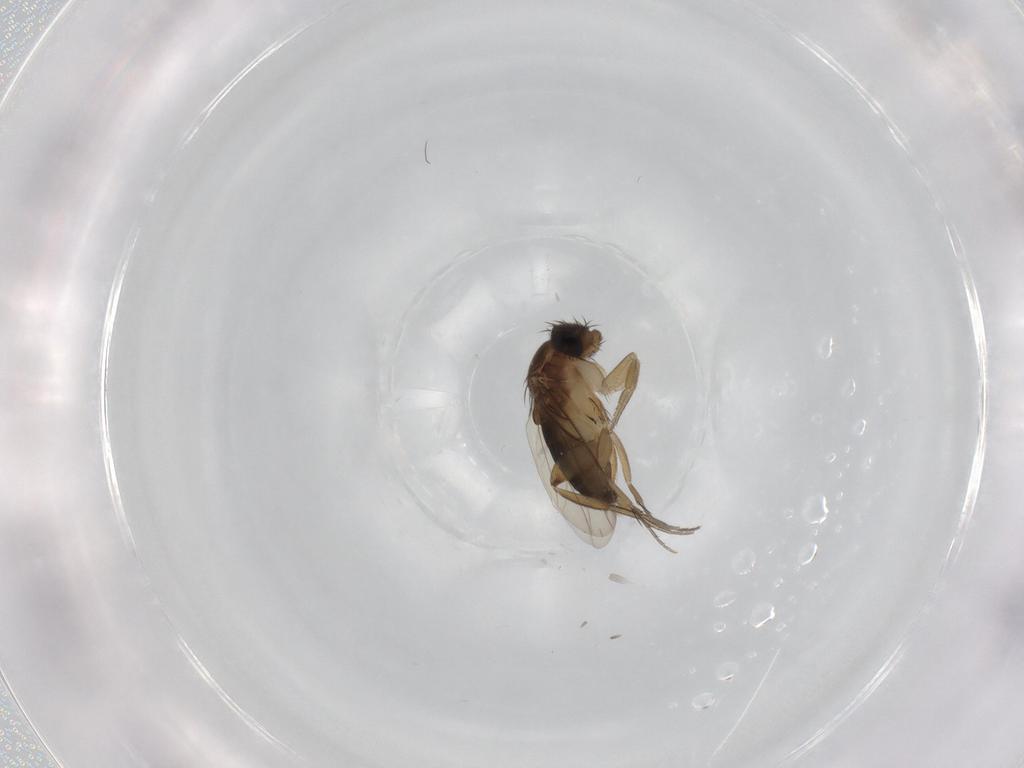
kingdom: Animalia
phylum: Arthropoda
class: Insecta
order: Diptera
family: Phoridae
